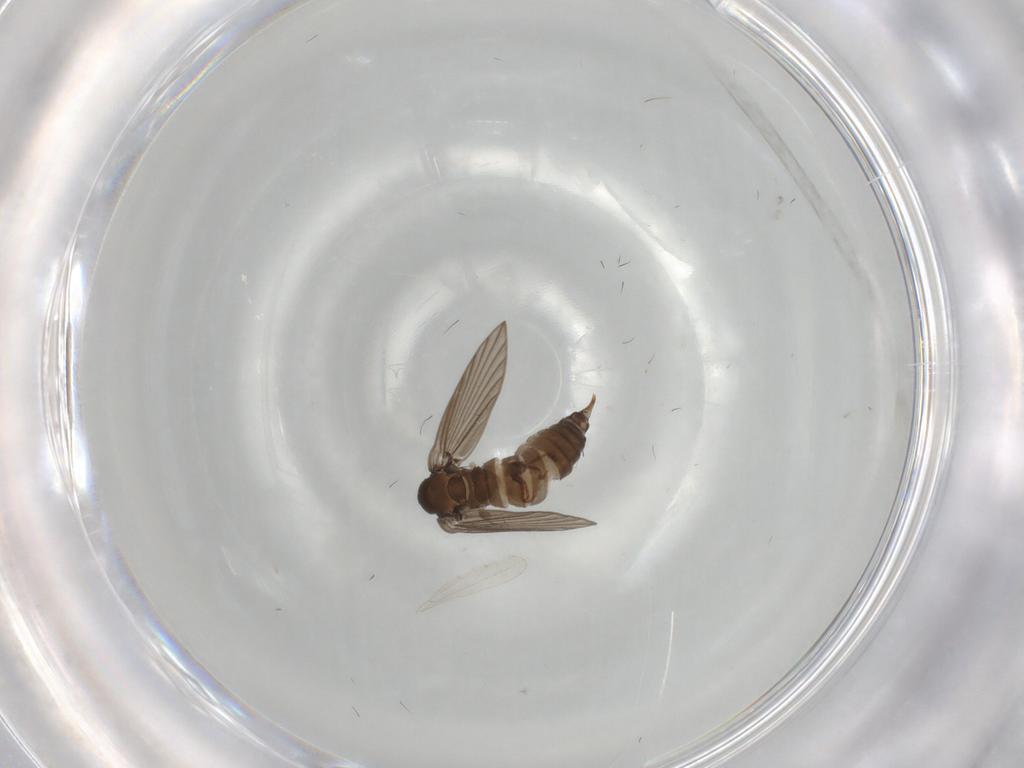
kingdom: Animalia
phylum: Arthropoda
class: Insecta
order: Diptera
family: Psychodidae
